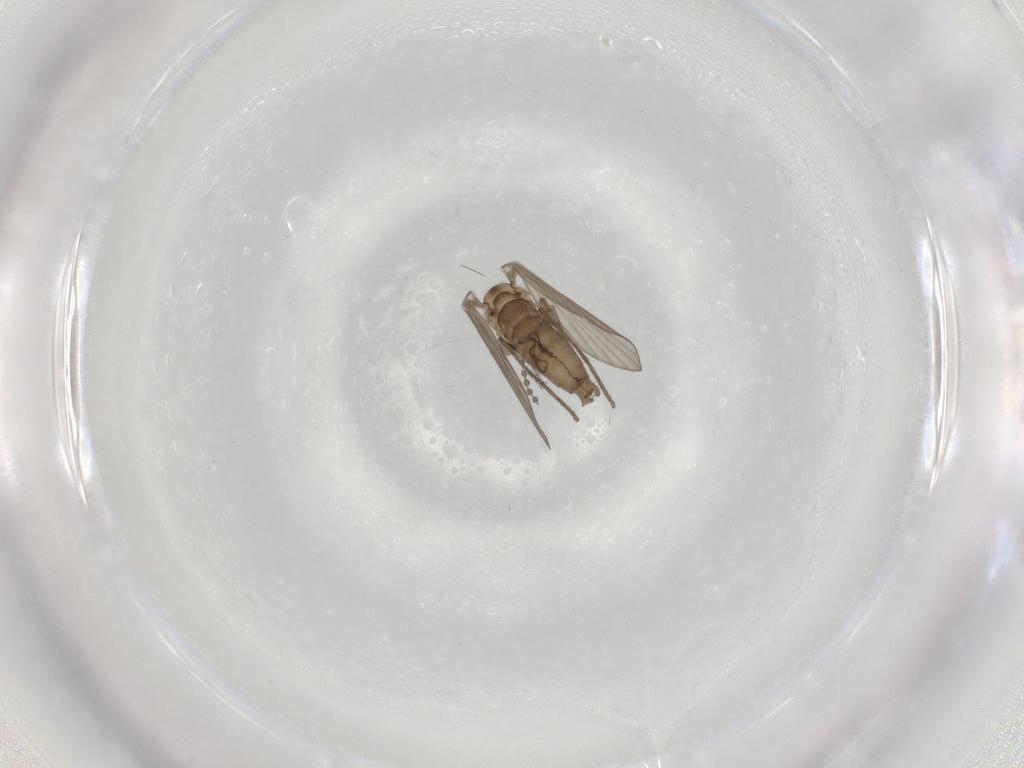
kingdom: Animalia
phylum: Arthropoda
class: Insecta
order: Diptera
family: Psychodidae
